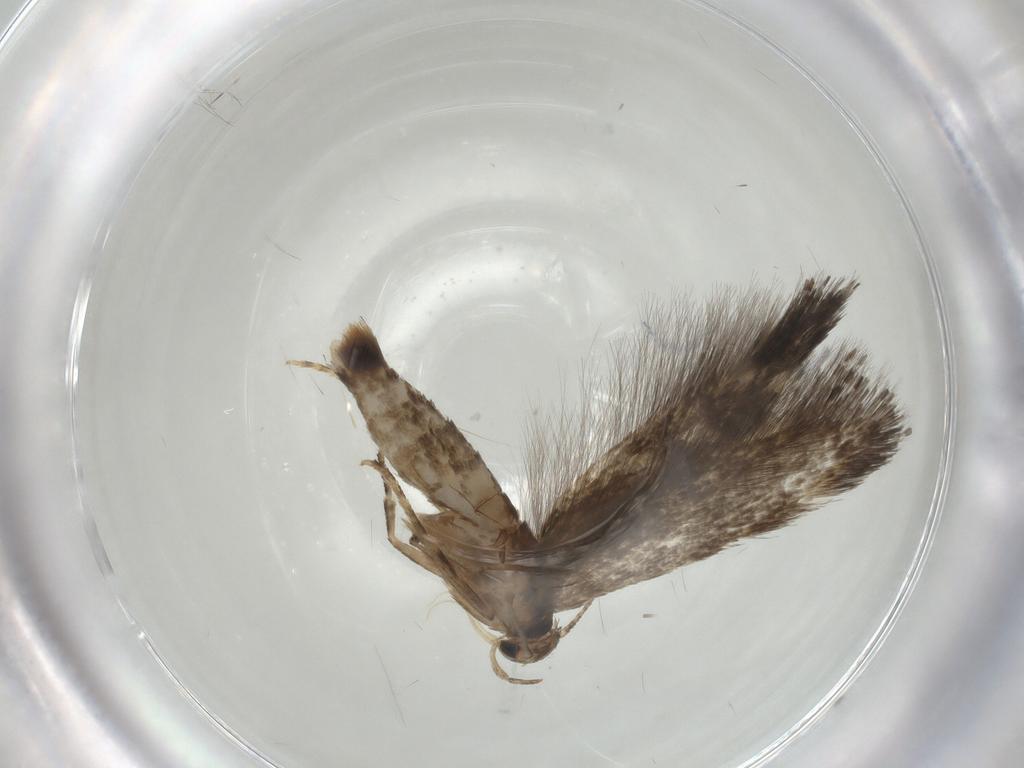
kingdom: Animalia
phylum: Arthropoda
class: Insecta
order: Lepidoptera
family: Elachistidae
